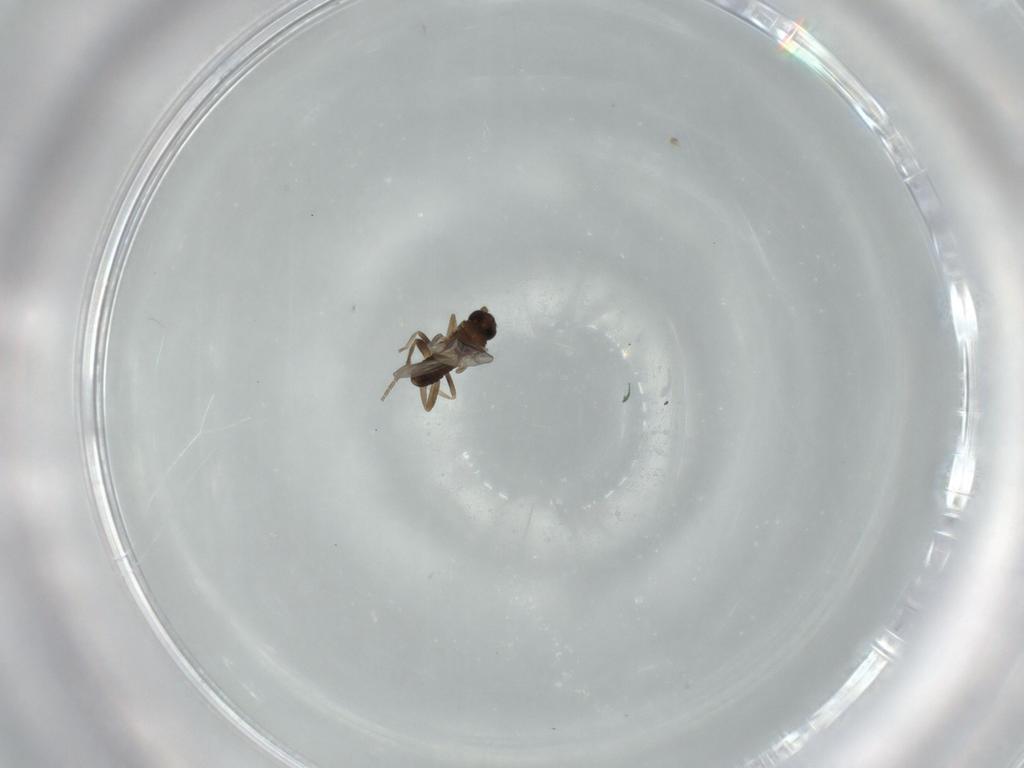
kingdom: Animalia
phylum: Arthropoda
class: Insecta
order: Diptera
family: Phoridae
